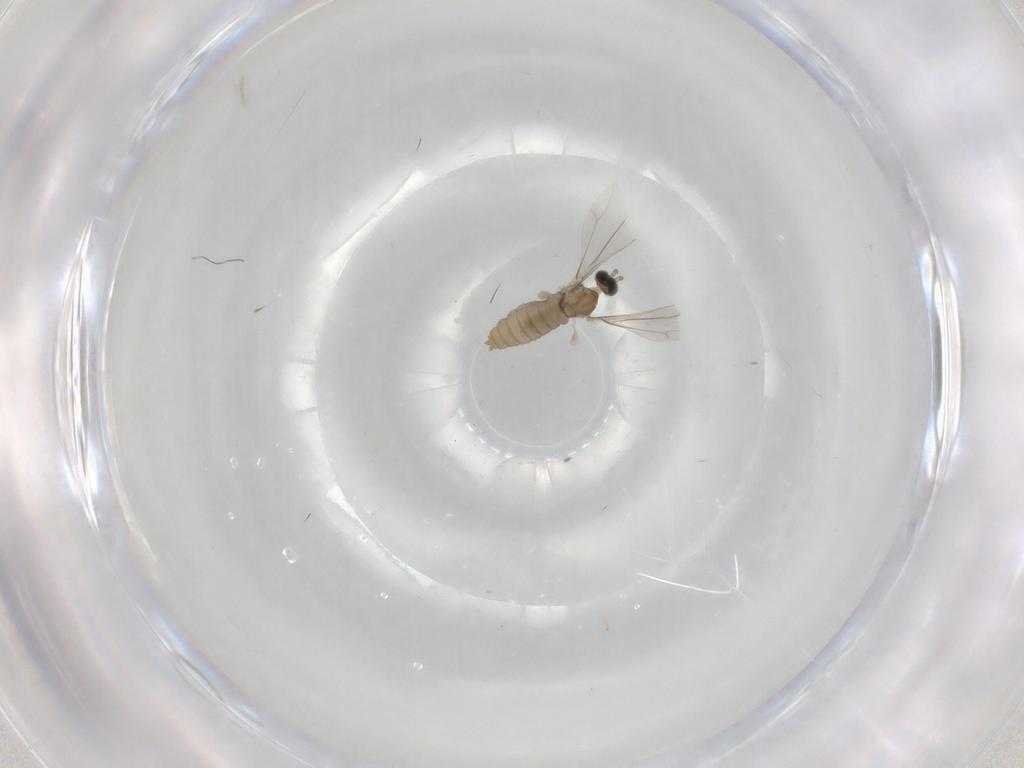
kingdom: Animalia
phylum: Arthropoda
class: Insecta
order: Diptera
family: Cecidomyiidae
